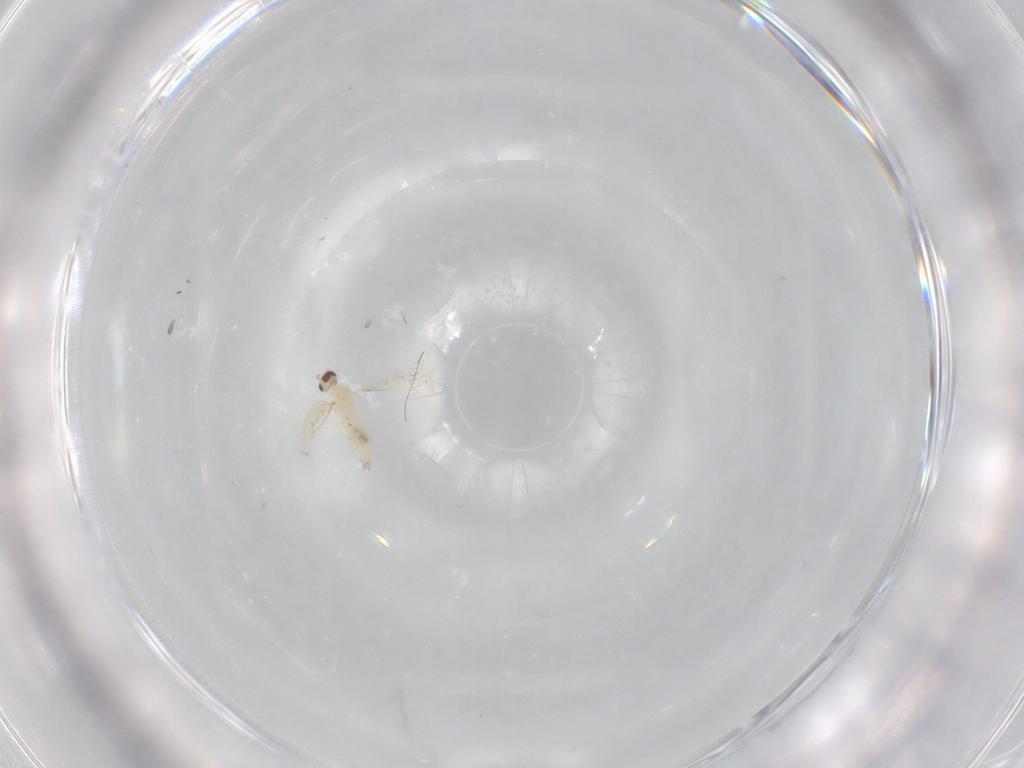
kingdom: Animalia
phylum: Arthropoda
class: Insecta
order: Diptera
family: Cecidomyiidae
